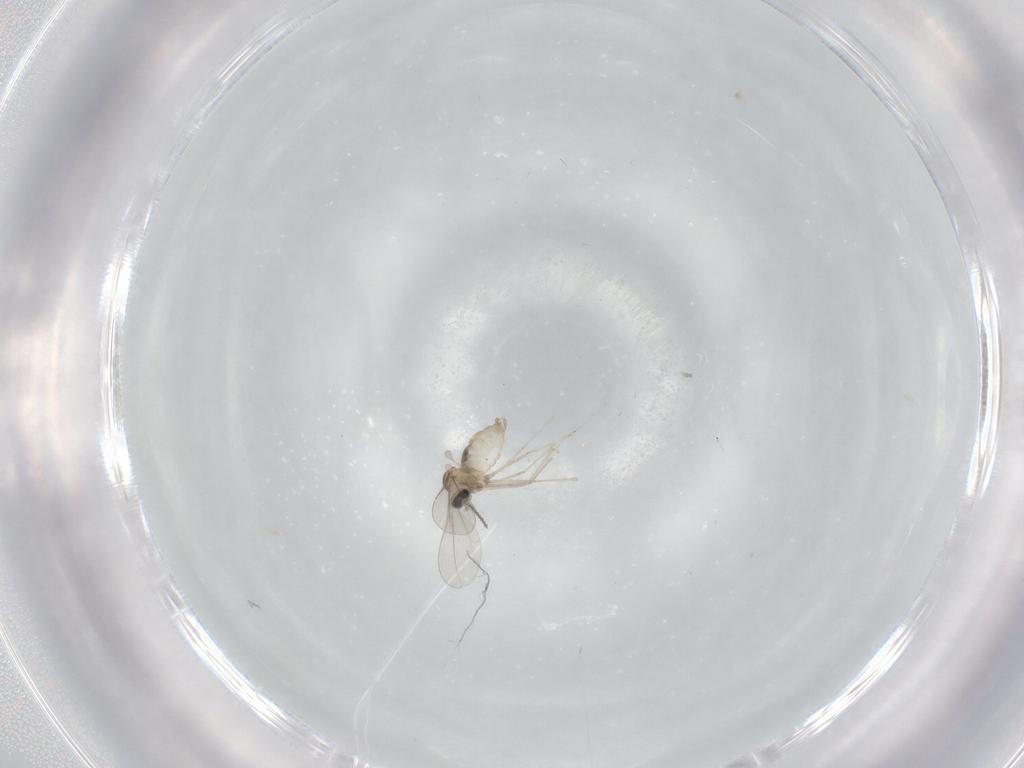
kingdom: Animalia
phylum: Arthropoda
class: Insecta
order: Diptera
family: Cecidomyiidae
